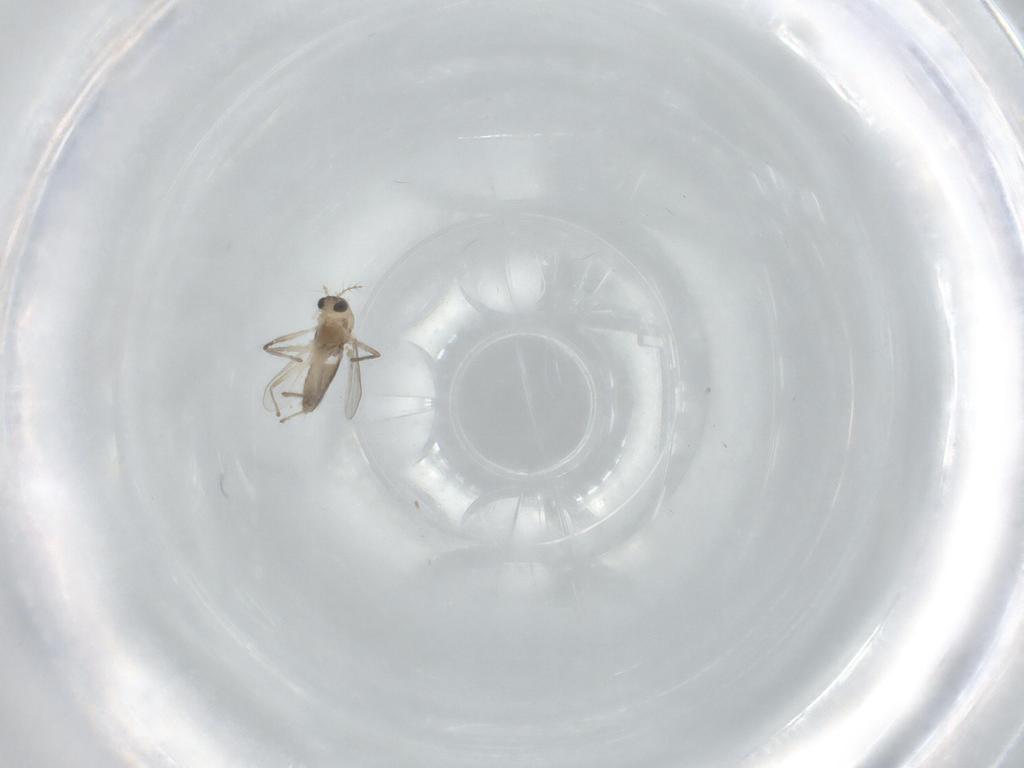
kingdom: Animalia
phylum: Arthropoda
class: Insecta
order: Diptera
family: Chironomidae
